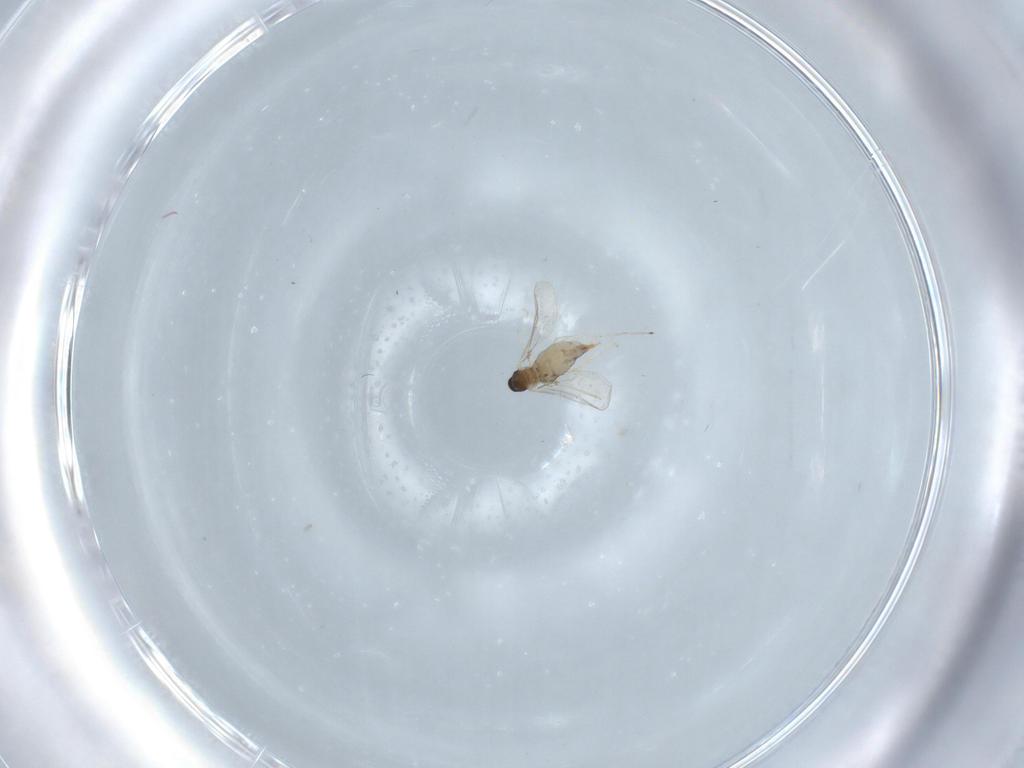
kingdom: Animalia
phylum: Arthropoda
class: Insecta
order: Diptera
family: Cecidomyiidae
